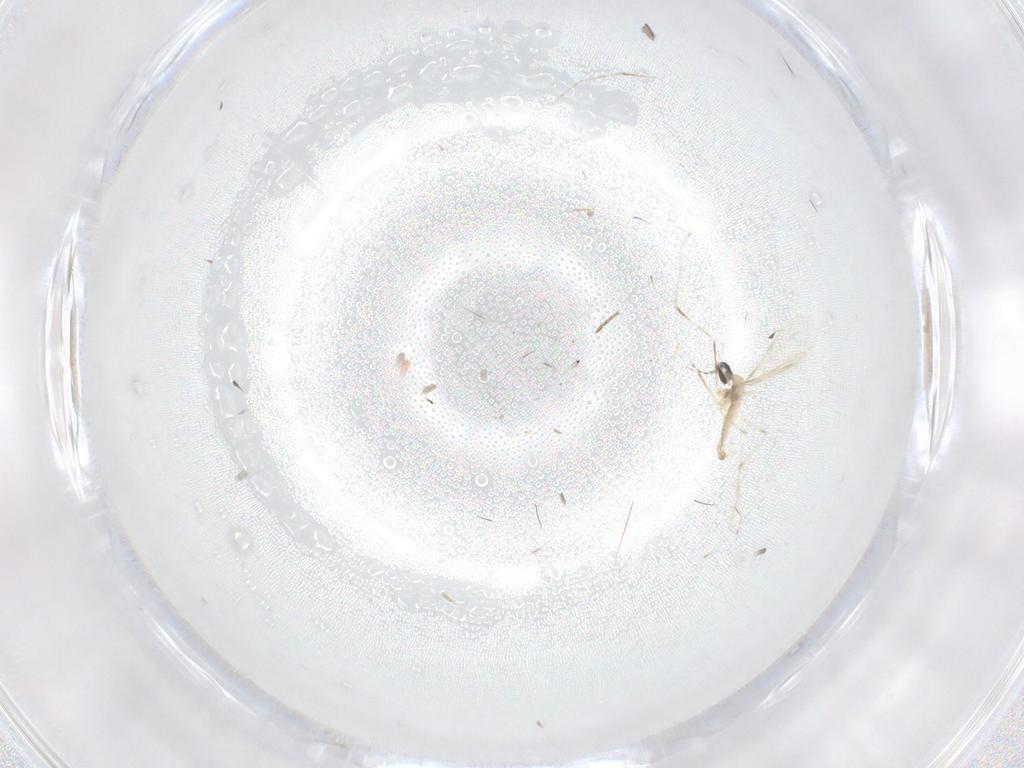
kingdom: Animalia
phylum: Arthropoda
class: Insecta
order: Diptera
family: Cecidomyiidae
